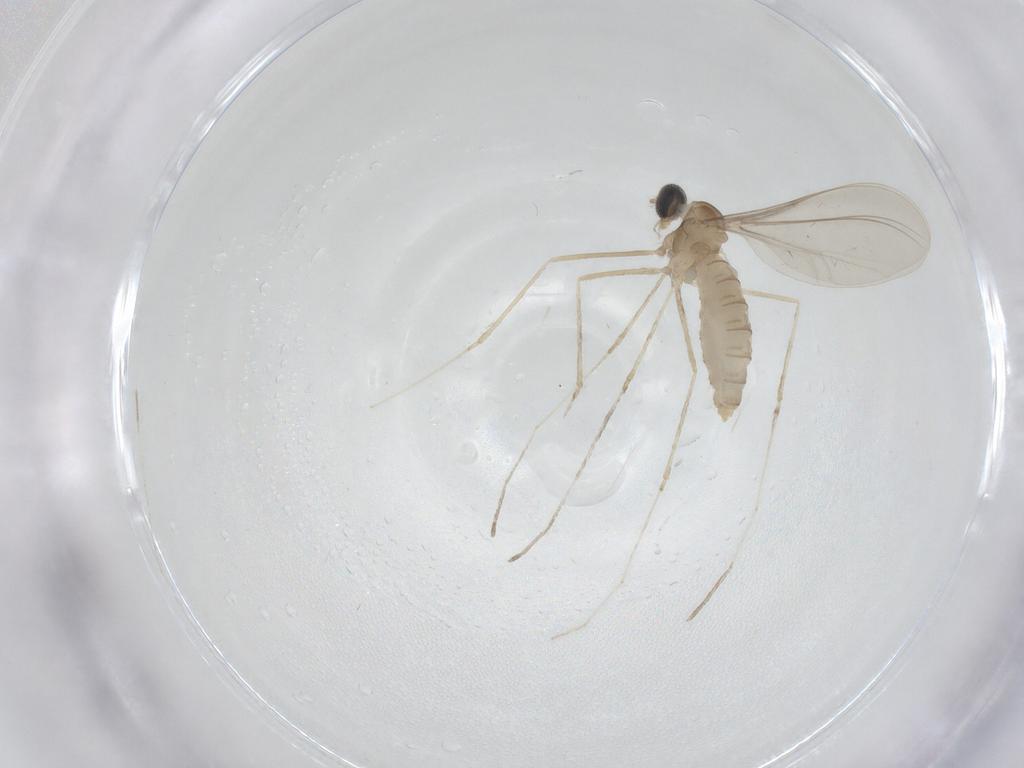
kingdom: Animalia
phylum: Arthropoda
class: Insecta
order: Diptera
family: Cecidomyiidae
